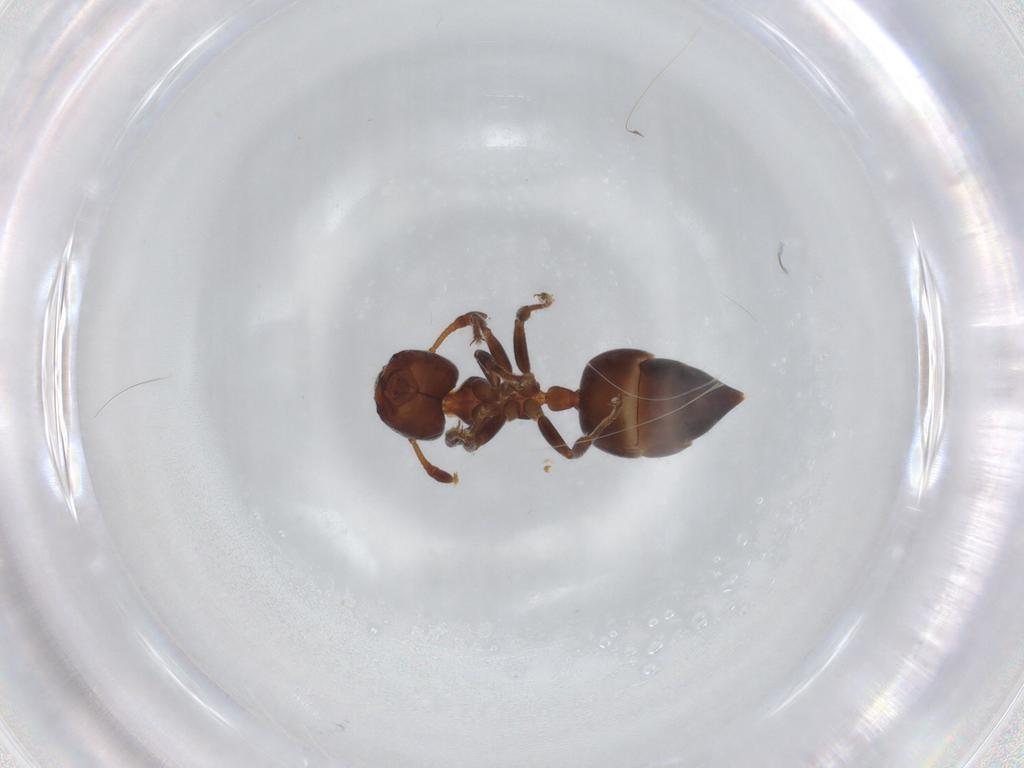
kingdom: Animalia
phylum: Arthropoda
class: Insecta
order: Hymenoptera
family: Formicidae
